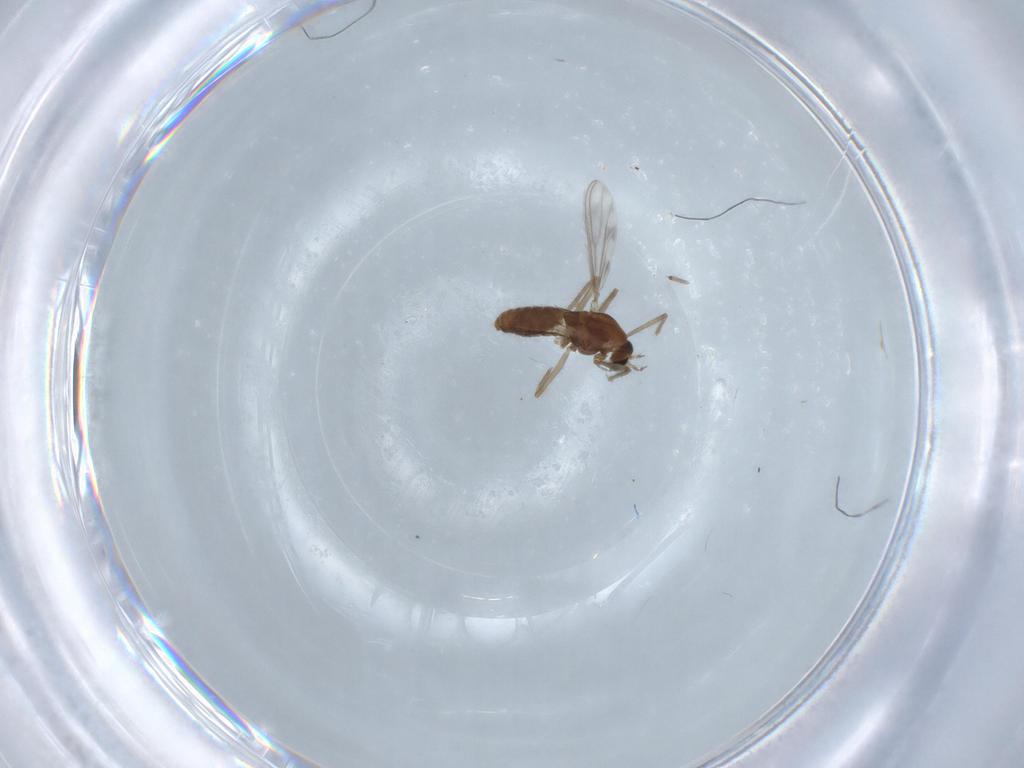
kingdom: Animalia
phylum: Arthropoda
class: Insecta
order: Diptera
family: Chironomidae
